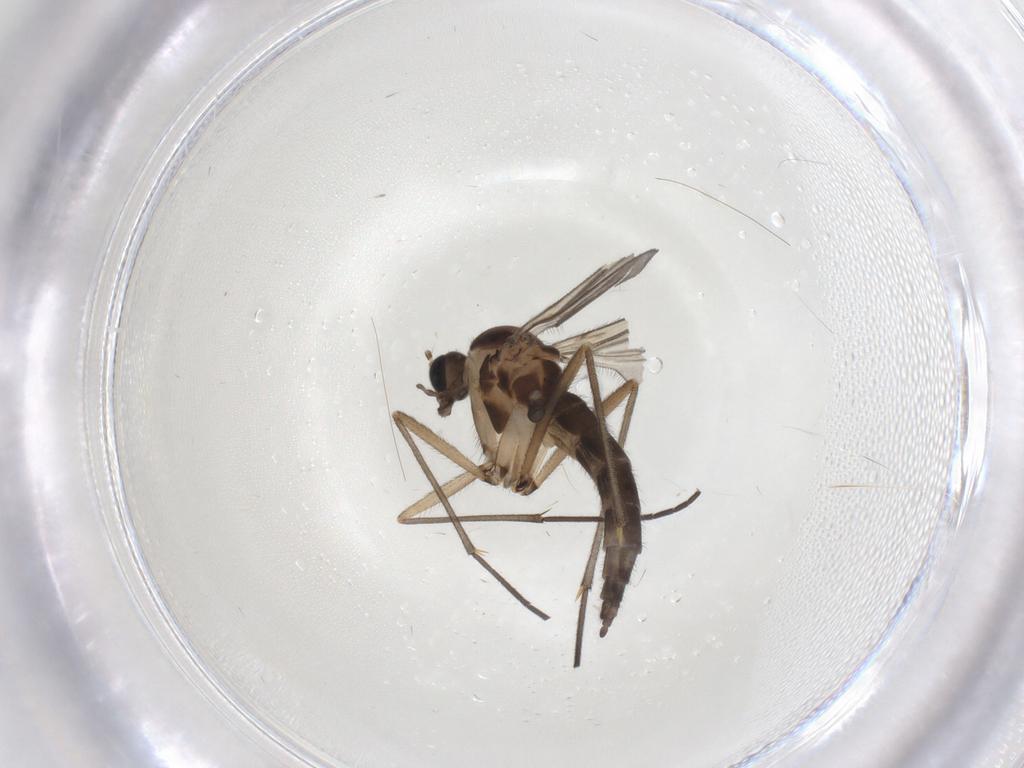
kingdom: Animalia
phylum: Arthropoda
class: Insecta
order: Diptera
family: Sciaridae
